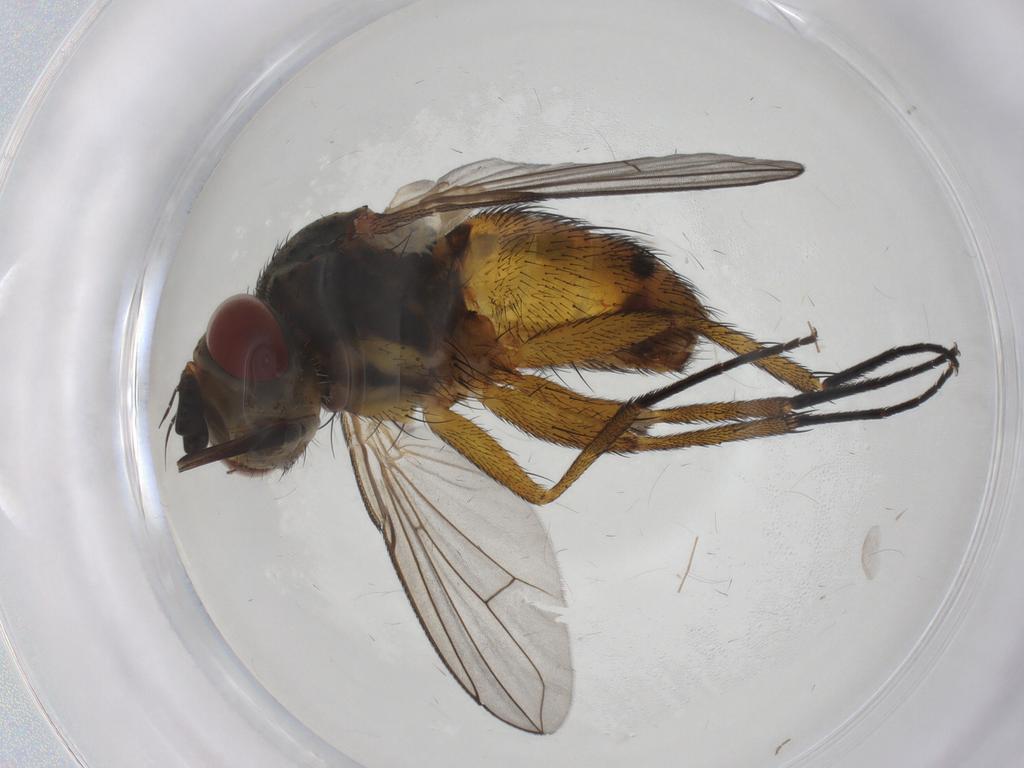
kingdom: Animalia
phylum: Arthropoda
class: Insecta
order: Diptera
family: Tachinidae
